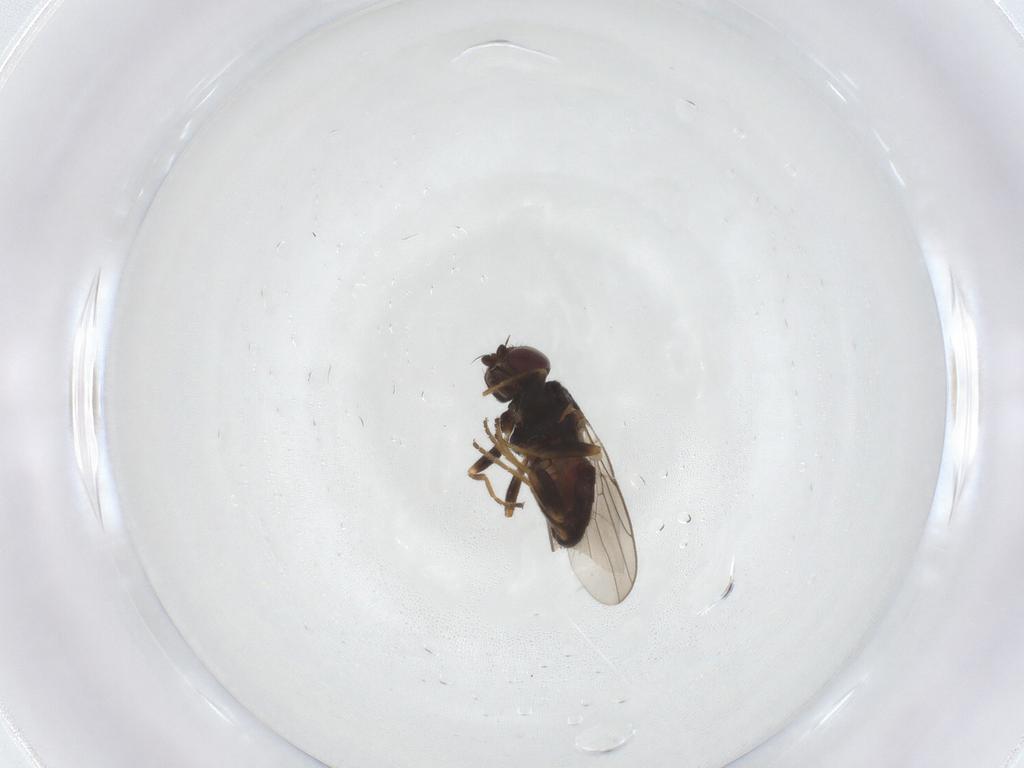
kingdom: Animalia
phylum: Arthropoda
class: Insecta
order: Diptera
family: Chloropidae
